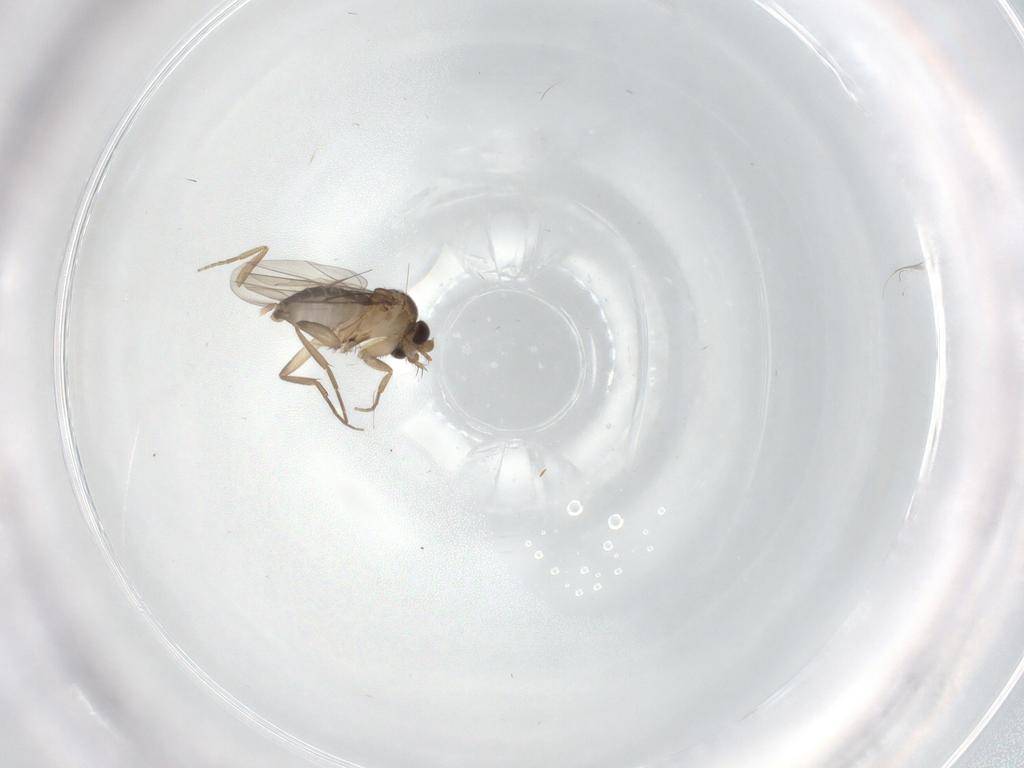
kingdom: Animalia
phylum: Arthropoda
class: Insecta
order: Diptera
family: Phoridae
